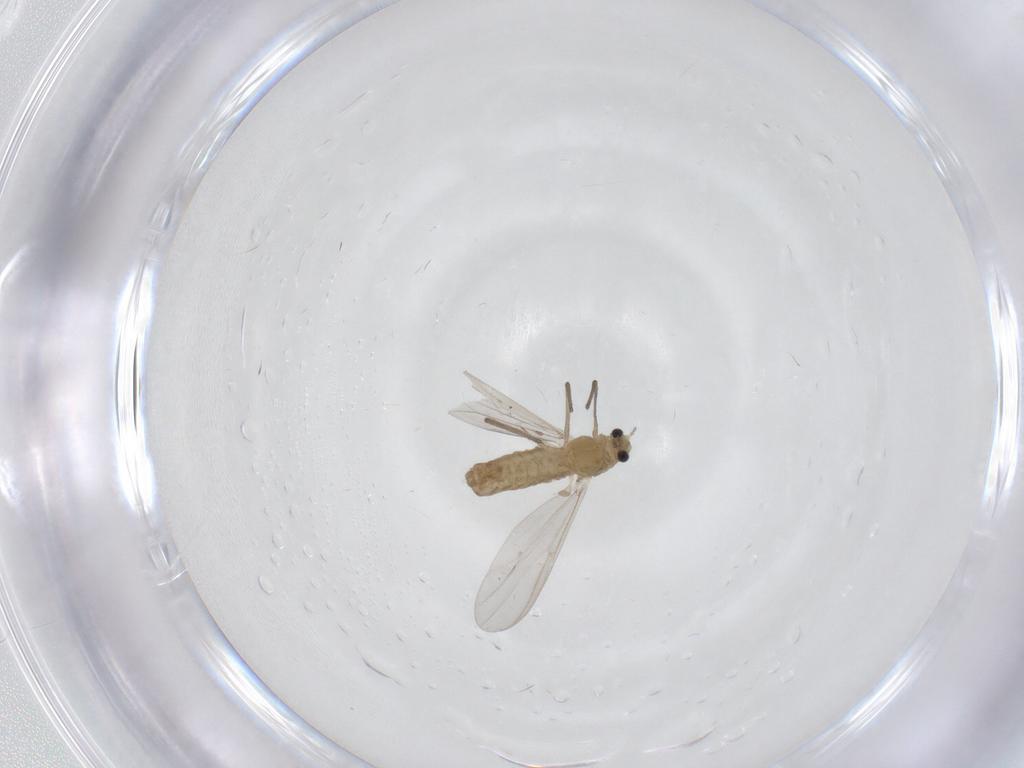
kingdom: Animalia
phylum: Arthropoda
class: Insecta
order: Diptera
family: Chironomidae
